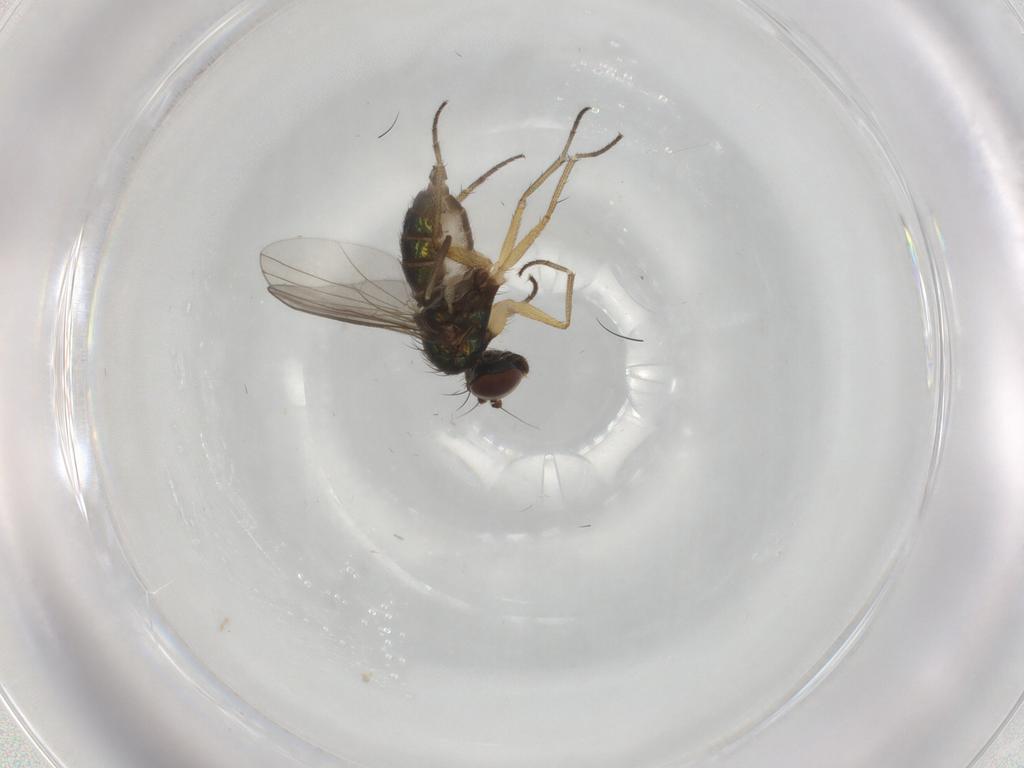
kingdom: Animalia
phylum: Arthropoda
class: Insecta
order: Diptera
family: Dolichopodidae
